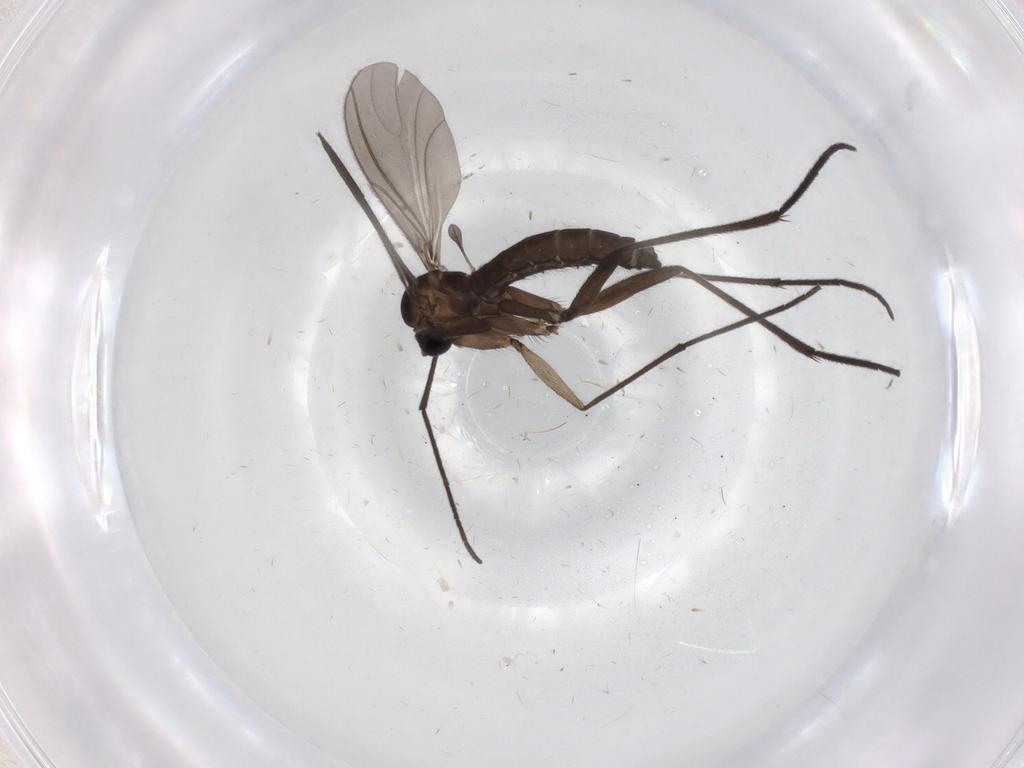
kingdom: Animalia
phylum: Arthropoda
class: Insecta
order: Diptera
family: Sciaridae
